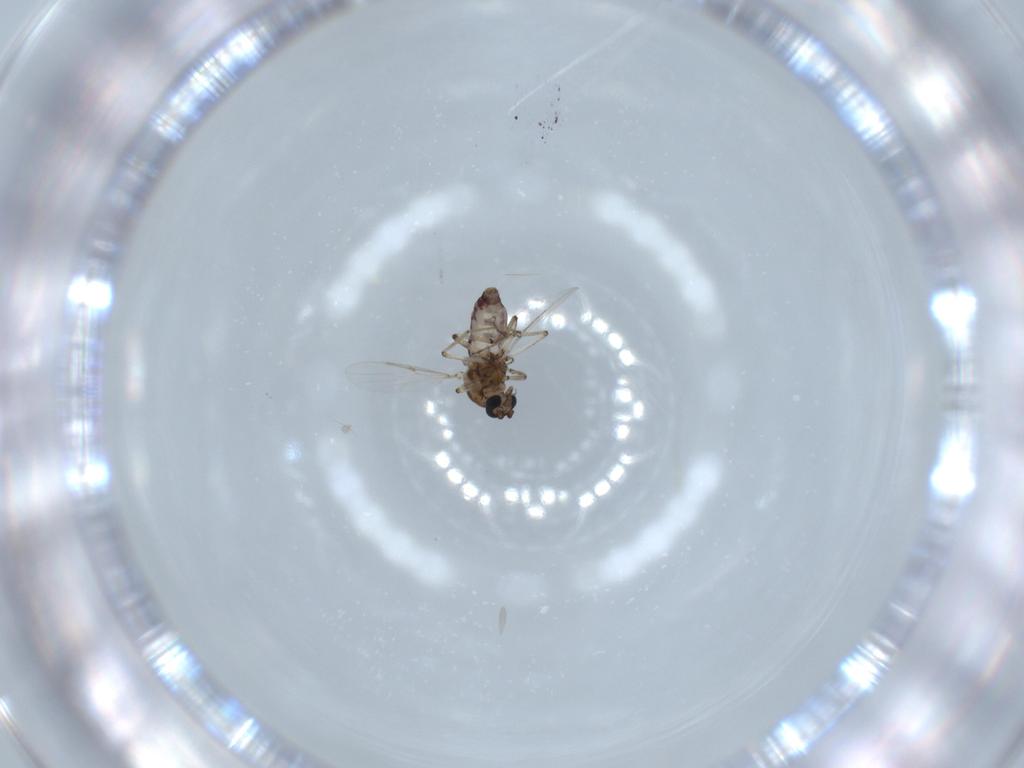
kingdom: Animalia
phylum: Arthropoda
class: Insecta
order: Diptera
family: Ceratopogonidae
